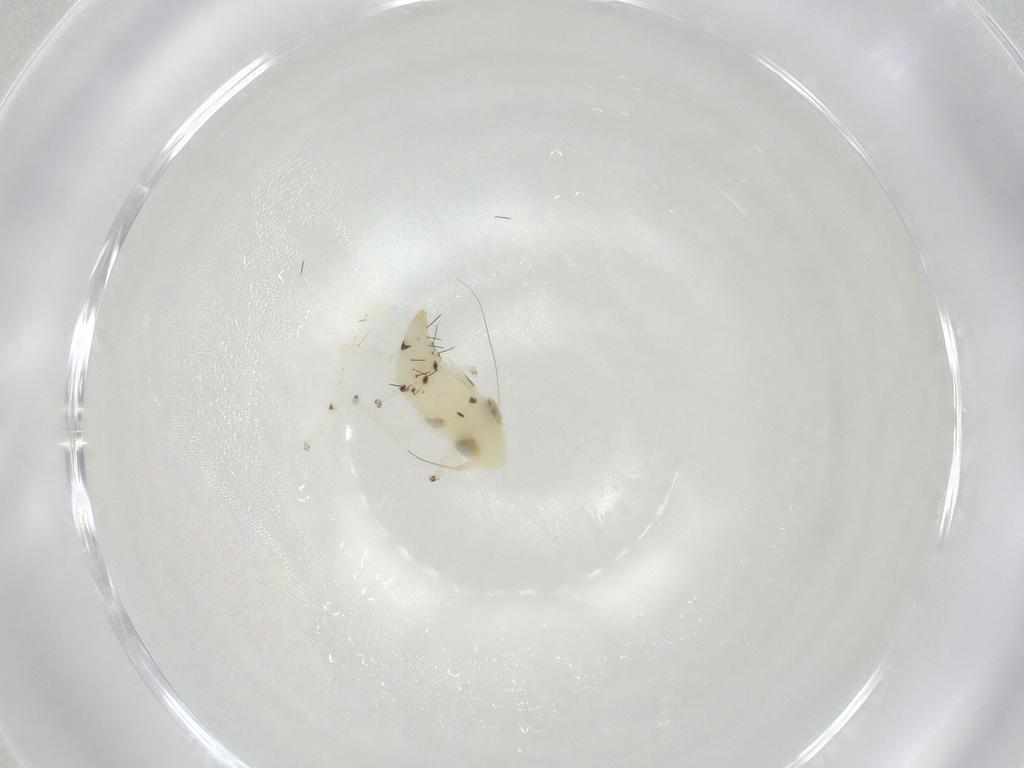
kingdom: Animalia
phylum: Arthropoda
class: Insecta
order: Hemiptera
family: Cicadellidae
